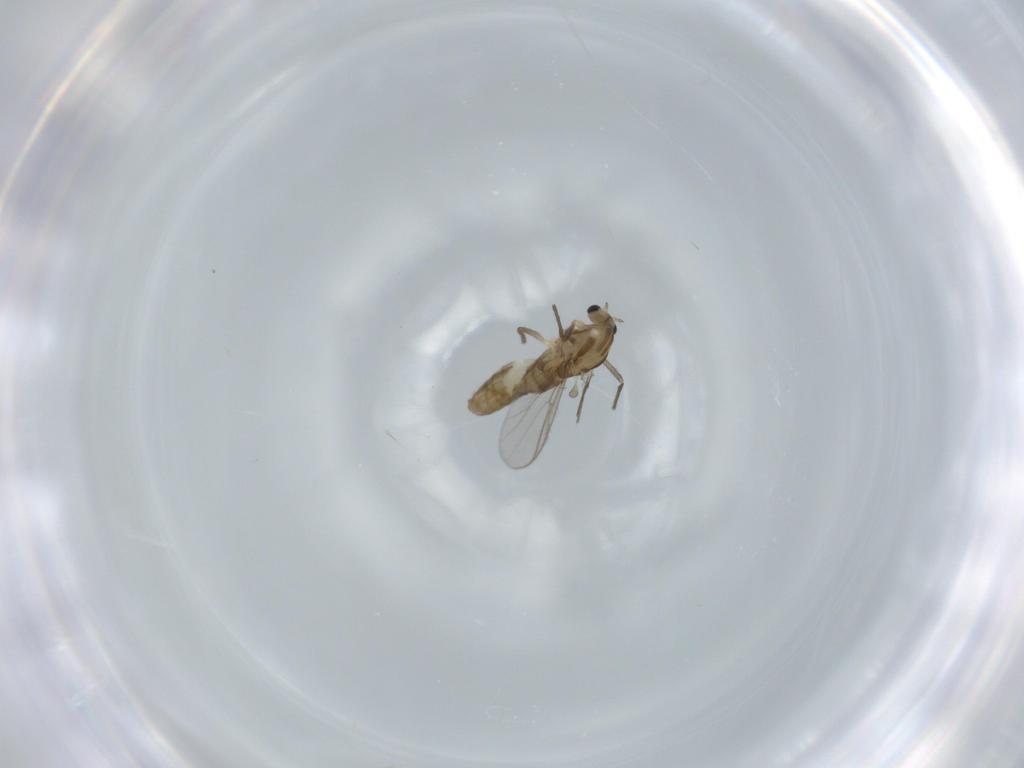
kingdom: Animalia
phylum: Arthropoda
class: Insecta
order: Diptera
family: Chironomidae
